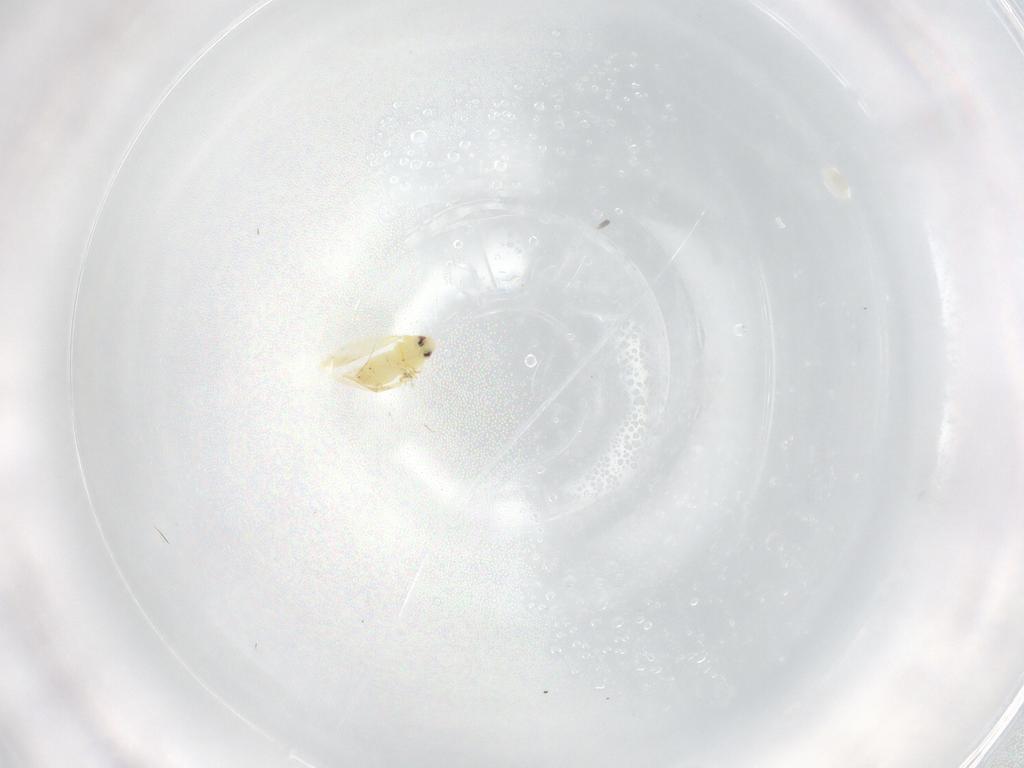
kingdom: Animalia
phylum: Arthropoda
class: Insecta
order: Hemiptera
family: Aleyrodidae
